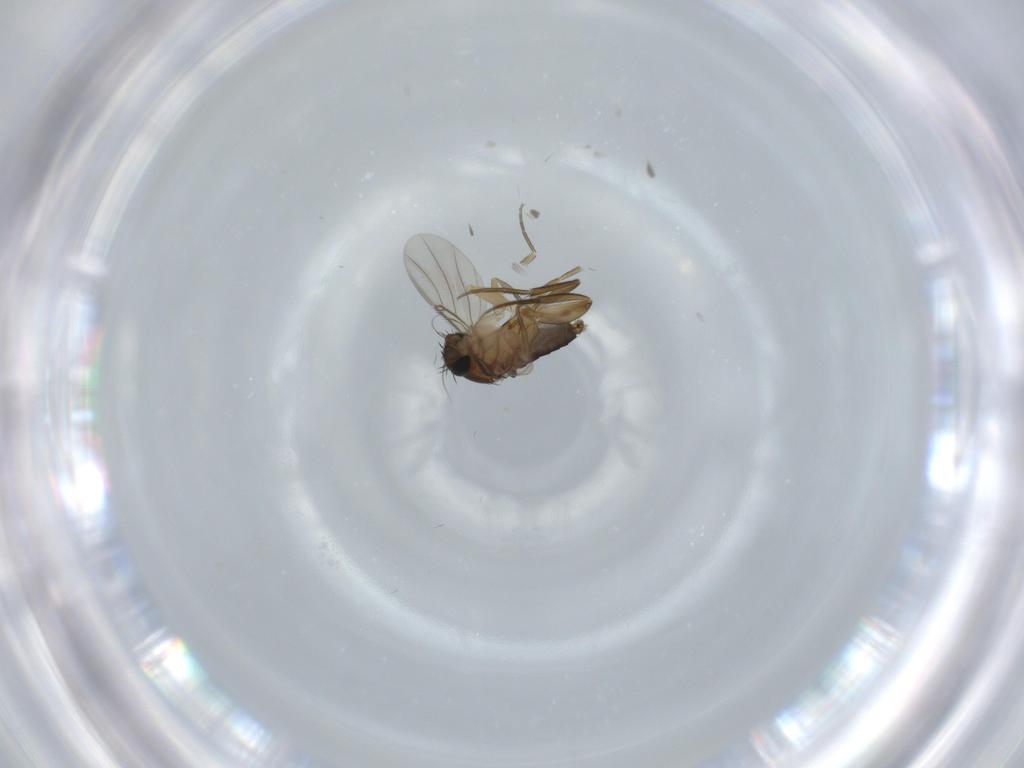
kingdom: Animalia
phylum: Arthropoda
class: Insecta
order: Diptera
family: Phoridae
